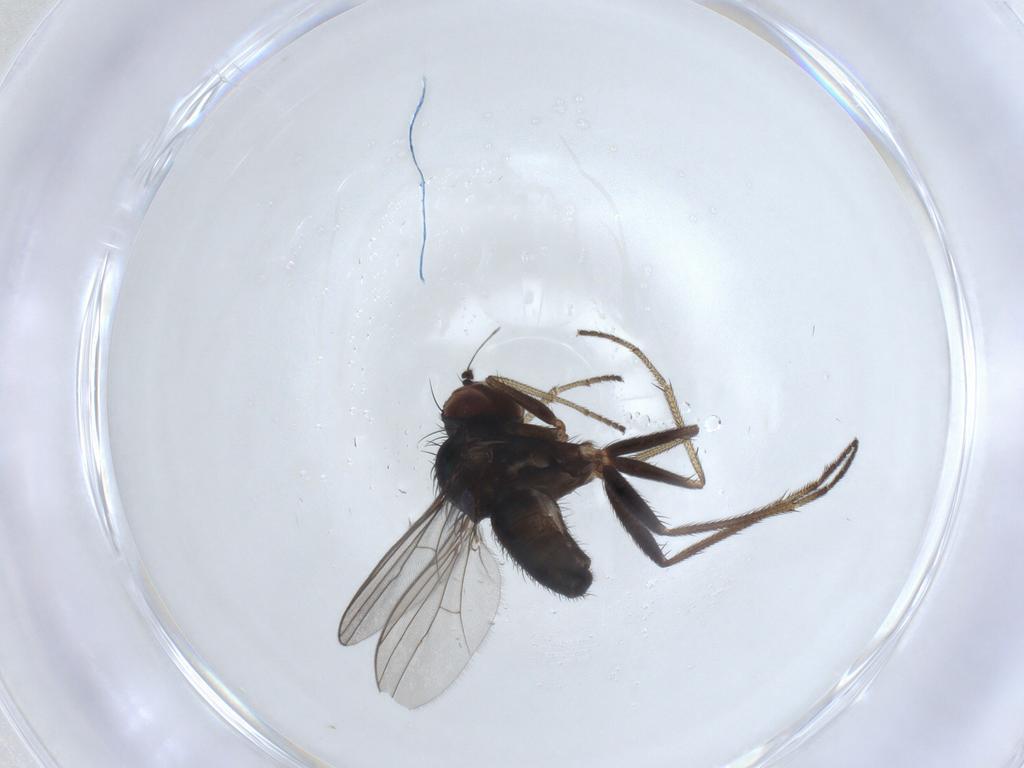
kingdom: Animalia
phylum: Arthropoda
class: Insecta
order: Diptera
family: Dolichopodidae
